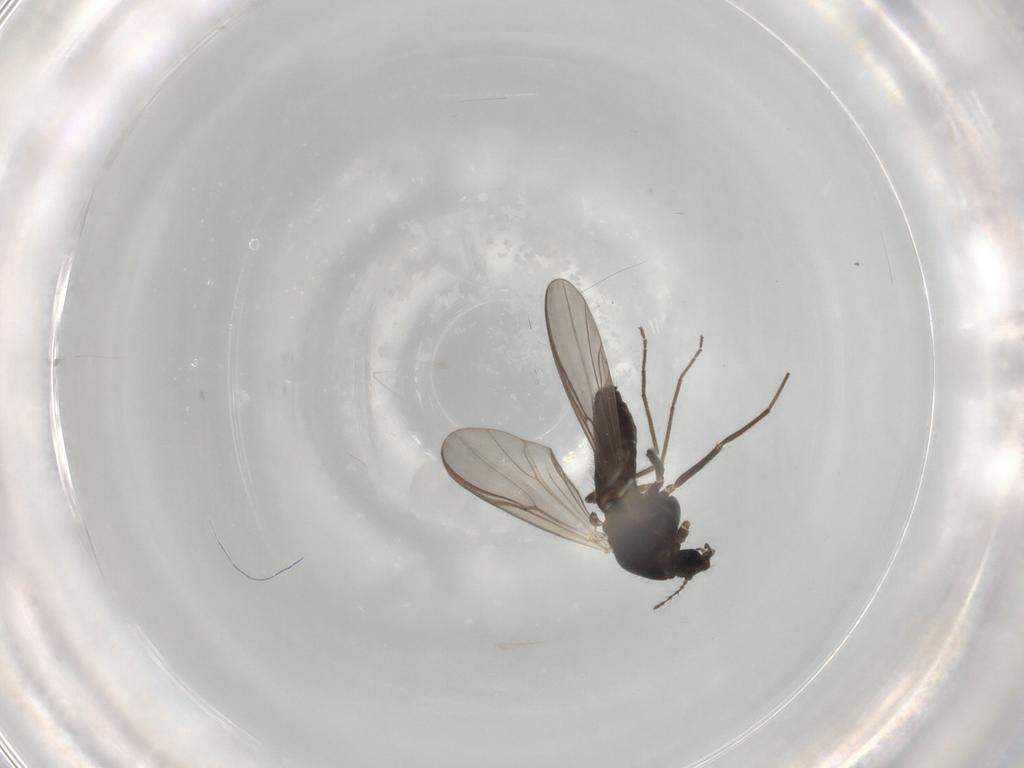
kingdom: Animalia
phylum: Arthropoda
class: Insecta
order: Diptera
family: Chironomidae
